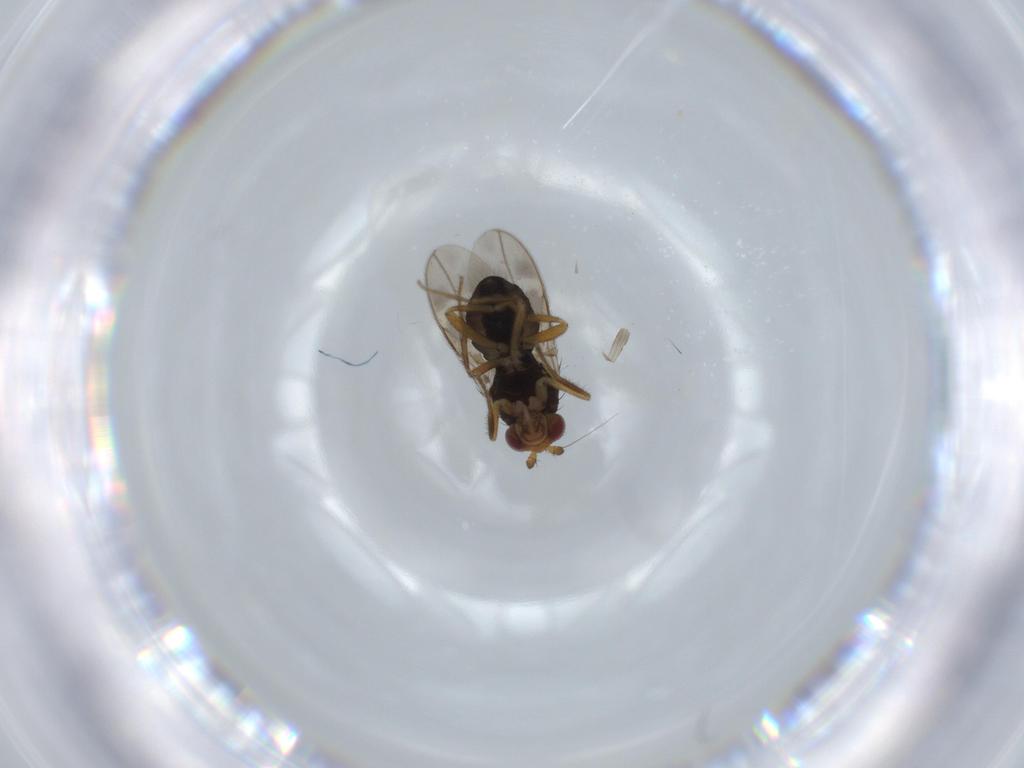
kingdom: Animalia
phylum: Arthropoda
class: Insecta
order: Diptera
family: Sphaeroceridae
